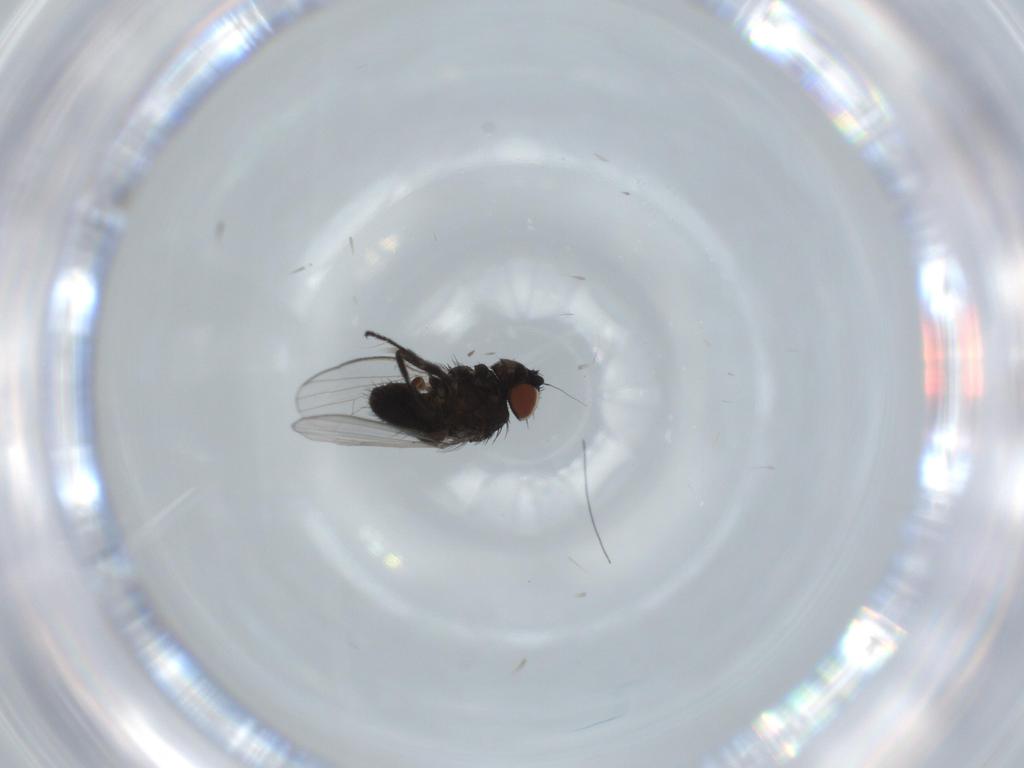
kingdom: Animalia
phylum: Arthropoda
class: Insecta
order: Diptera
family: Milichiidae
